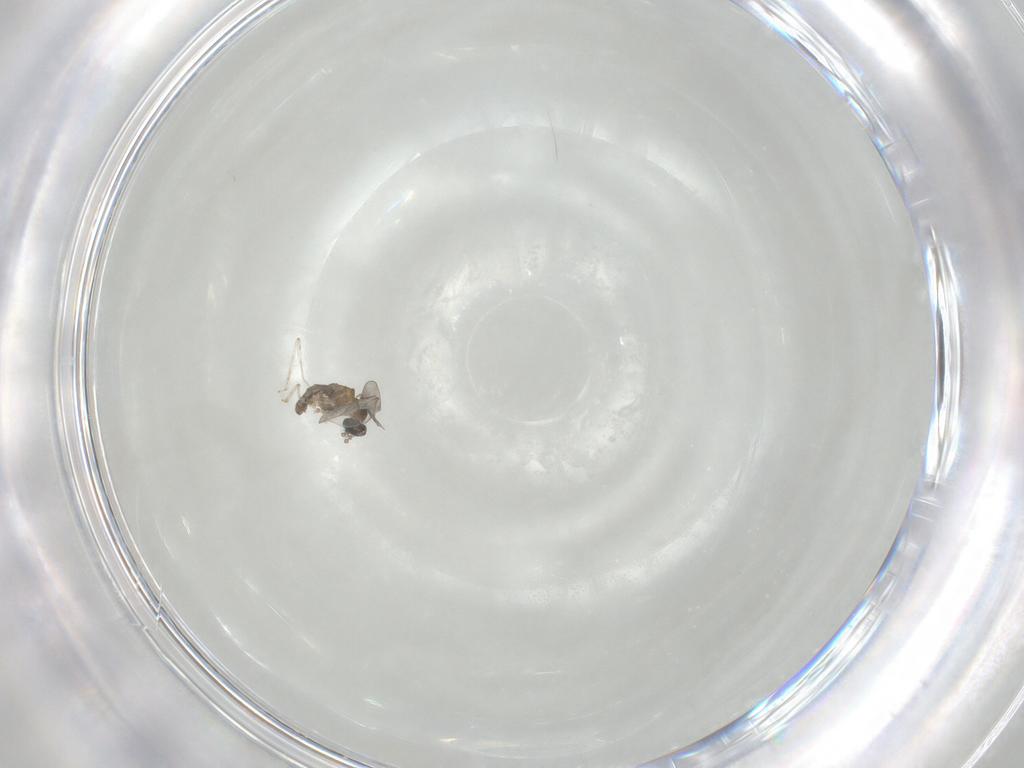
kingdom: Animalia
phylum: Arthropoda
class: Insecta
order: Diptera
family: Cecidomyiidae
